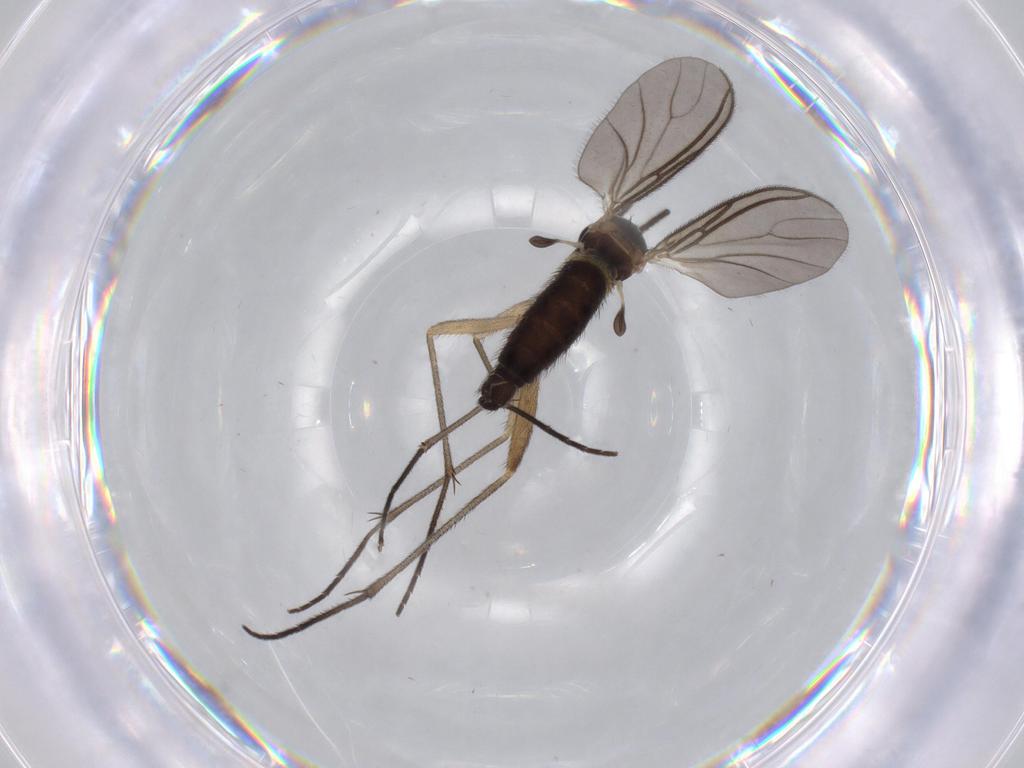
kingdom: Animalia
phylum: Arthropoda
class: Insecta
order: Diptera
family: Sciaridae
